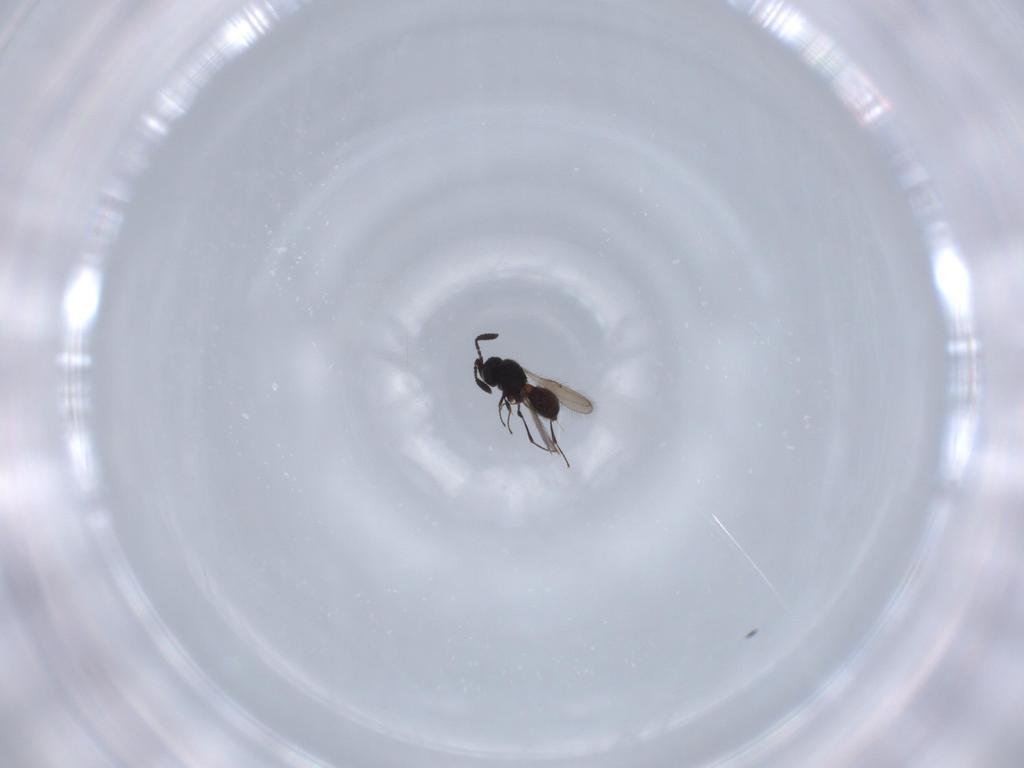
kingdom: Animalia
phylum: Arthropoda
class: Insecta
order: Hymenoptera
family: Scelionidae
